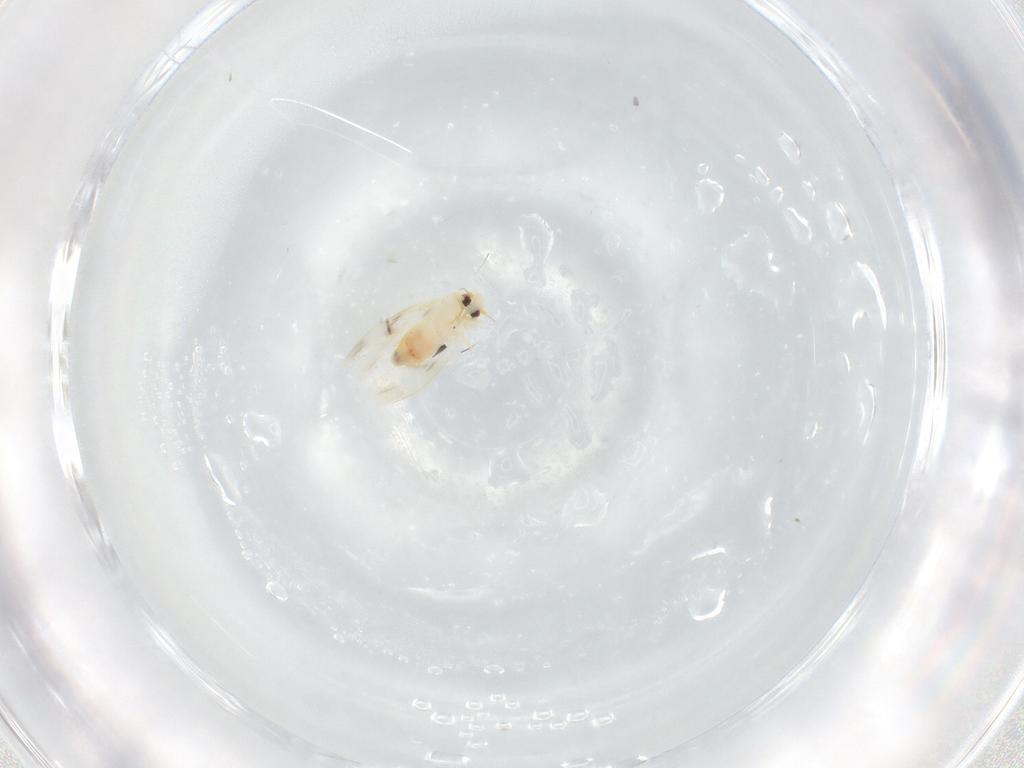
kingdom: Animalia
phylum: Arthropoda
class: Insecta
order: Hemiptera
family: Aleyrodidae
